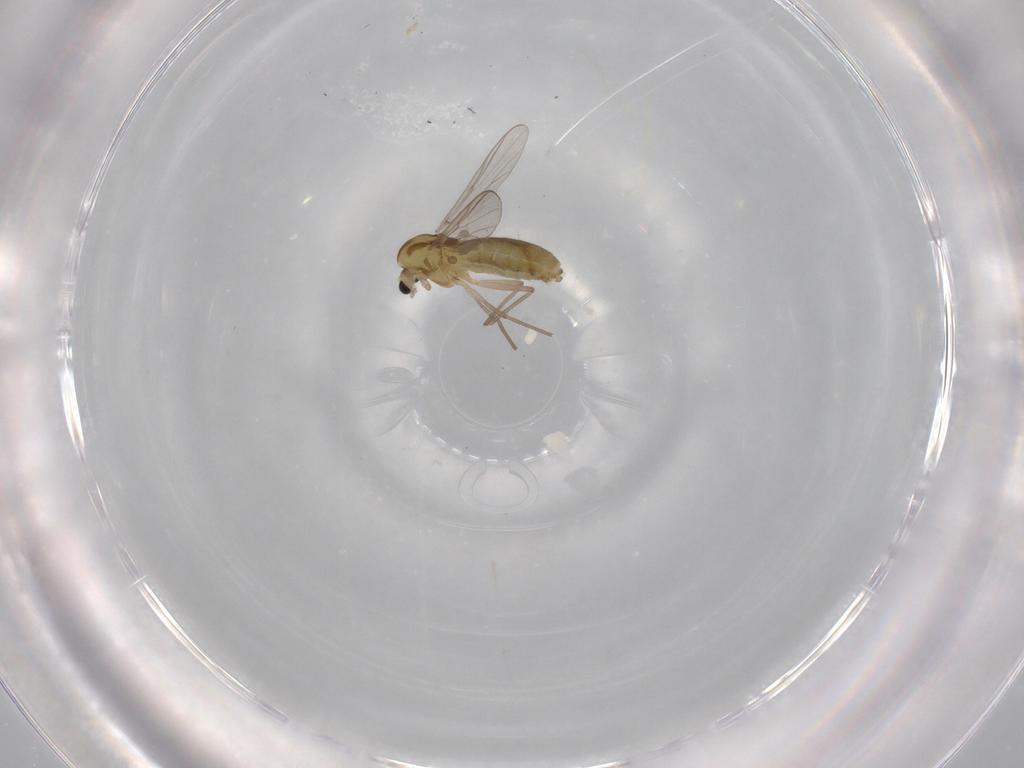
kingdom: Animalia
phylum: Arthropoda
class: Insecta
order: Diptera
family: Chironomidae
